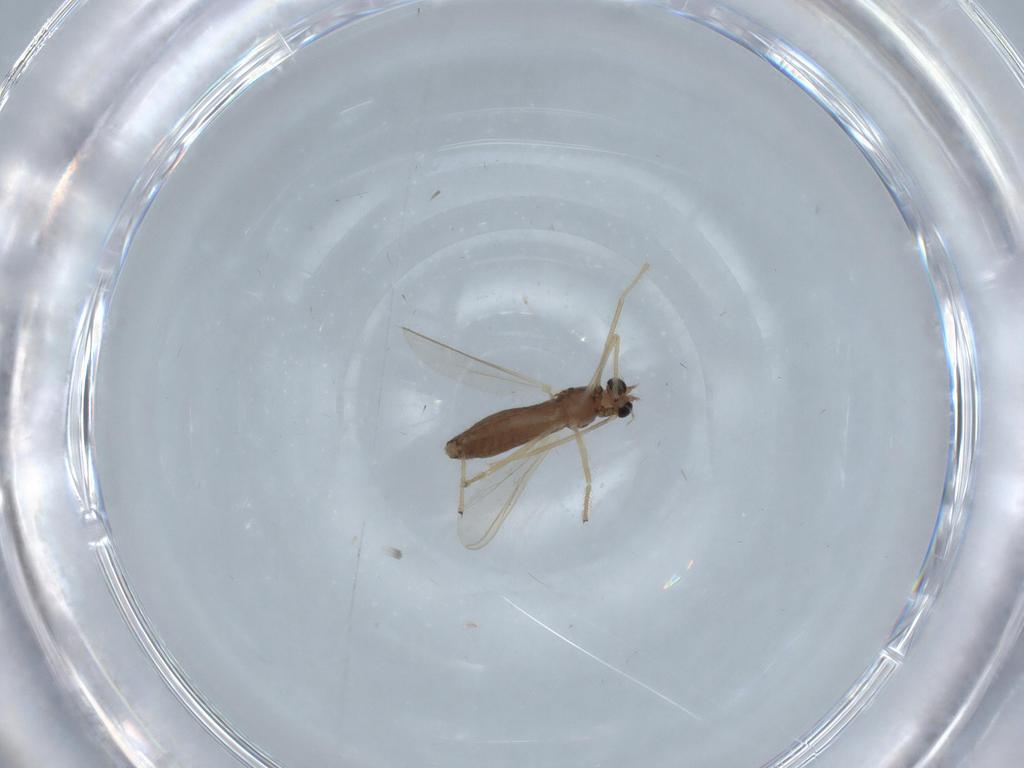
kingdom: Animalia
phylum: Arthropoda
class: Insecta
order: Diptera
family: Chironomidae
